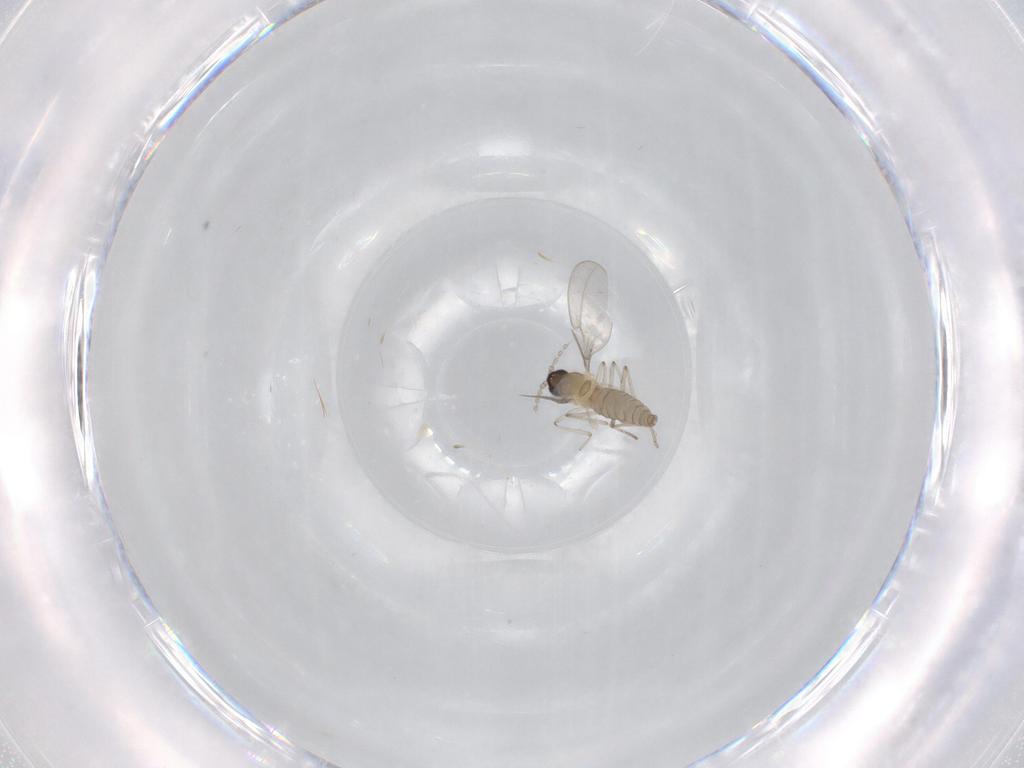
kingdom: Animalia
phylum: Arthropoda
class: Insecta
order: Diptera
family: Cecidomyiidae
